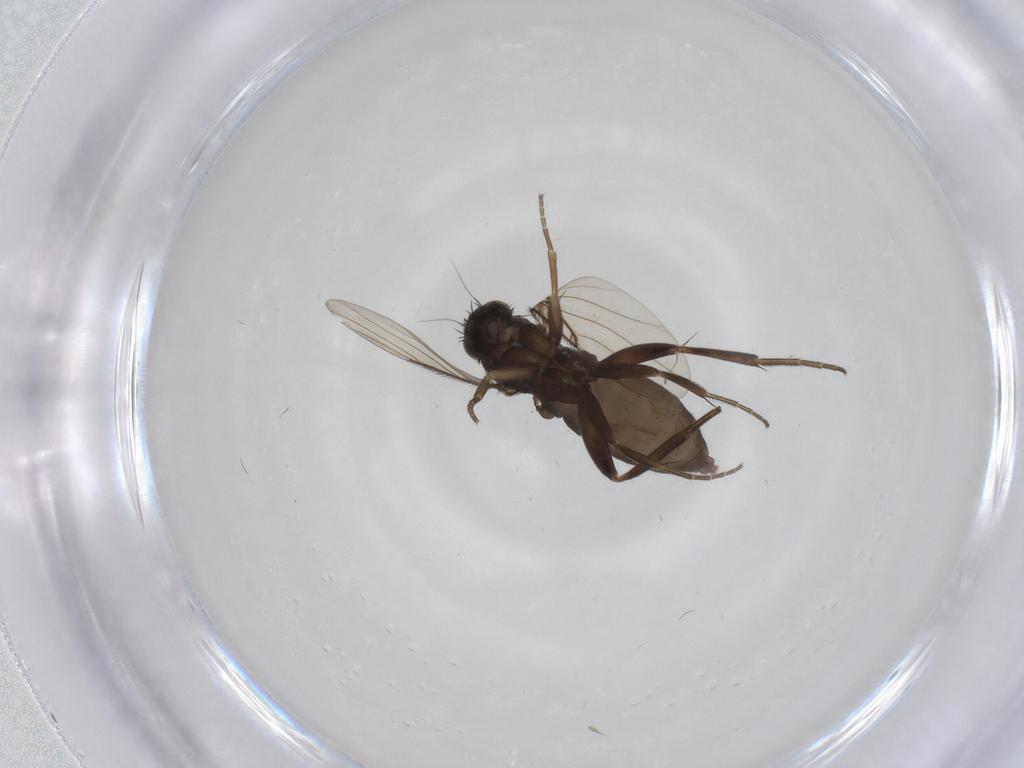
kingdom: Animalia
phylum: Arthropoda
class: Insecta
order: Diptera
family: Phoridae
